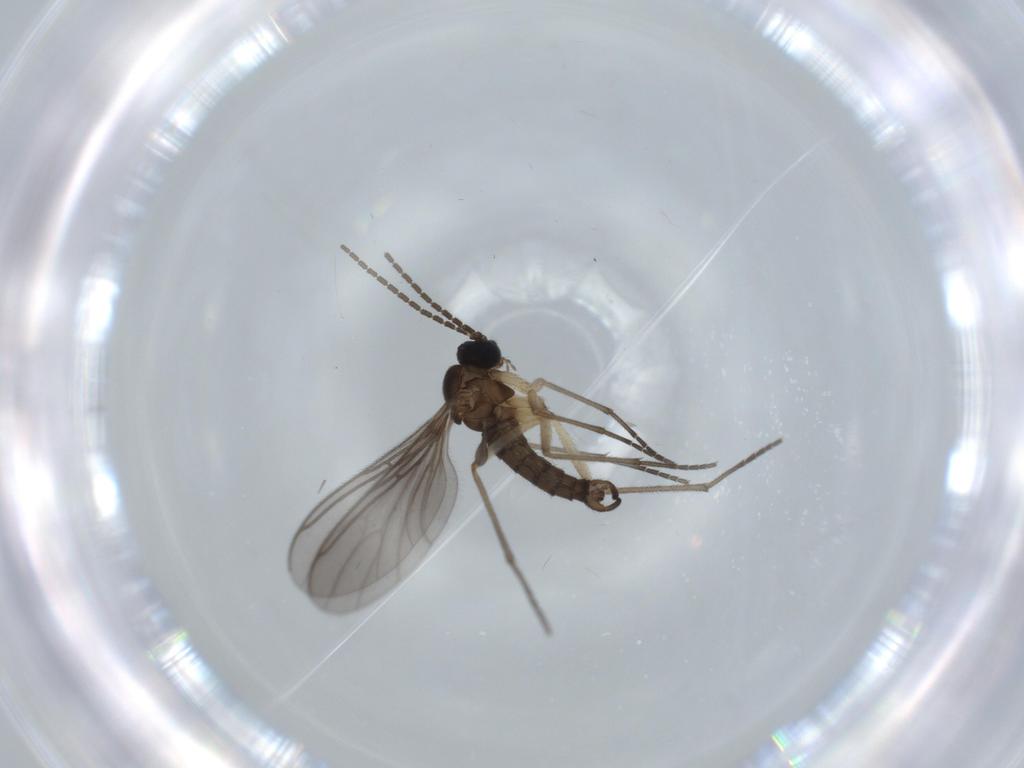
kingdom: Animalia
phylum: Arthropoda
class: Insecta
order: Diptera
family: Sciaridae
